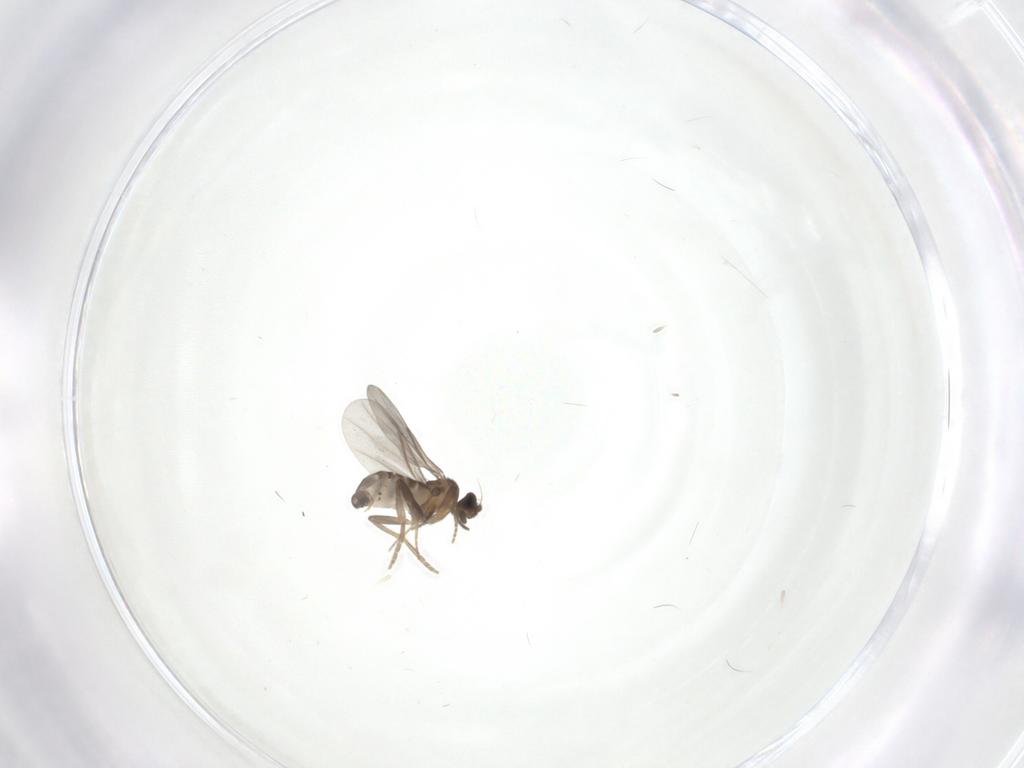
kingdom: Animalia
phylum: Arthropoda
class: Insecta
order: Diptera
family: Phoridae
